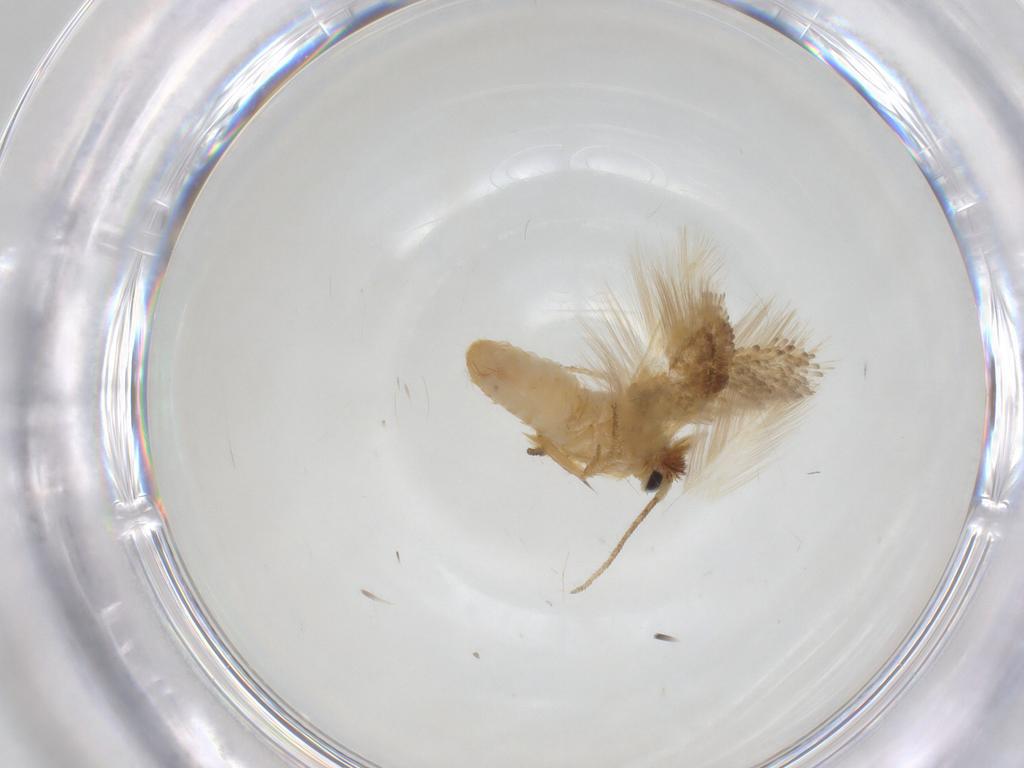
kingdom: Animalia
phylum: Arthropoda
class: Insecta
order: Lepidoptera
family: Nepticulidae
